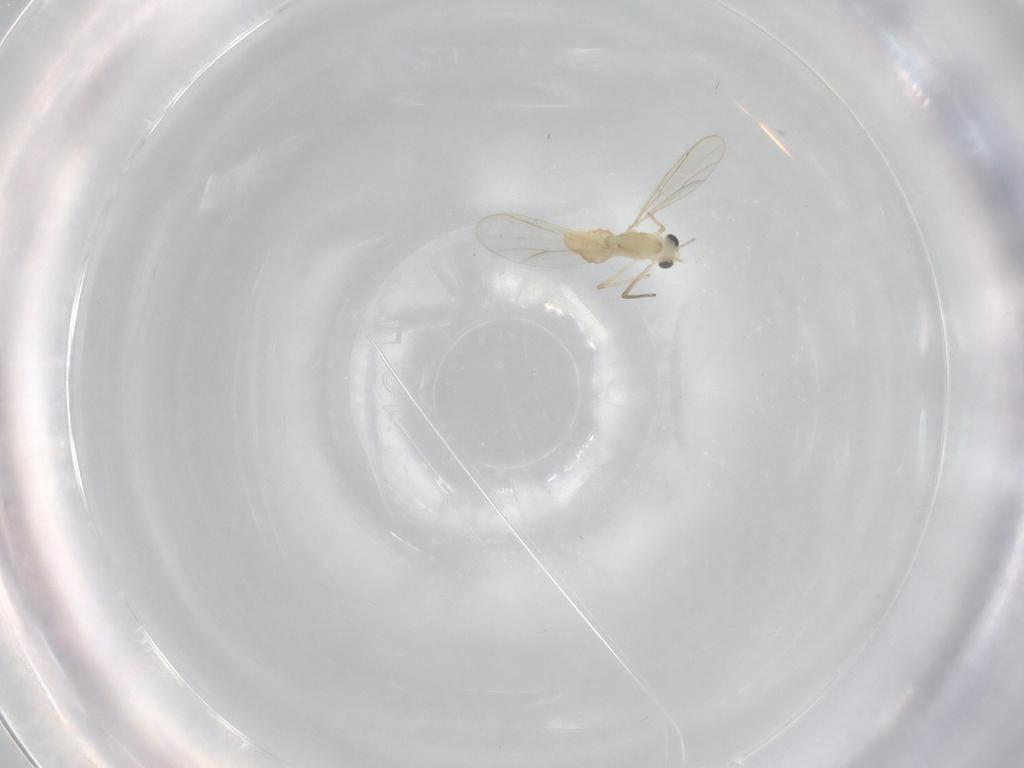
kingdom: Animalia
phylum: Arthropoda
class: Insecta
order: Diptera
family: Chironomidae
